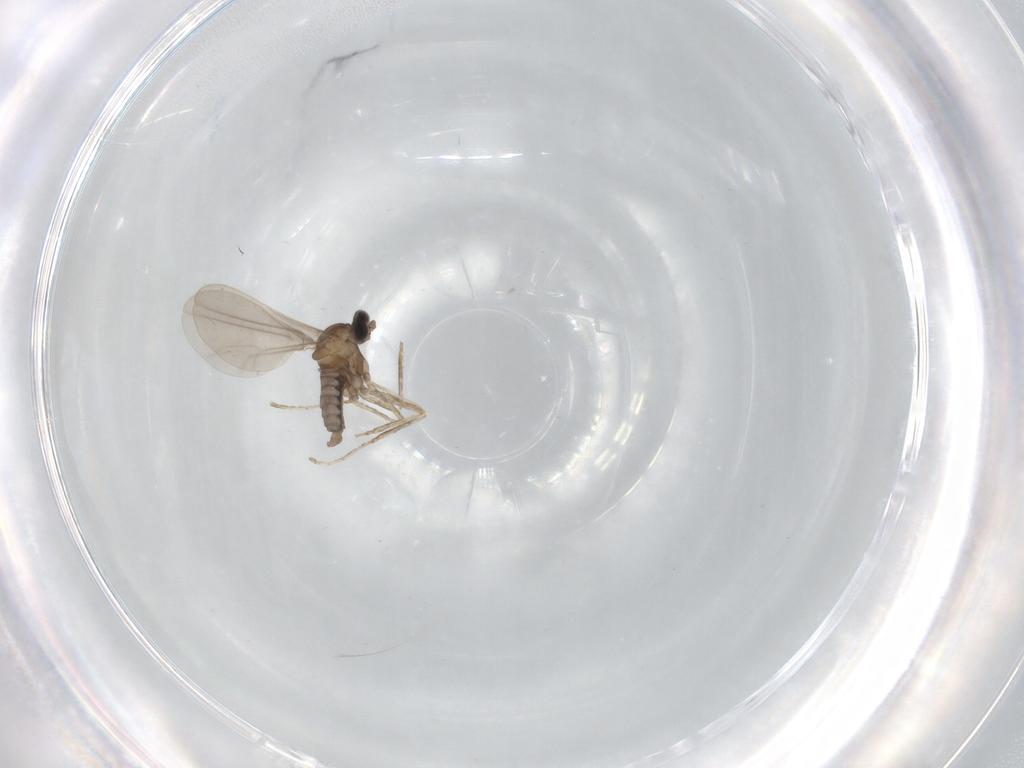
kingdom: Animalia
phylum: Arthropoda
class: Insecta
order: Diptera
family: Cecidomyiidae
